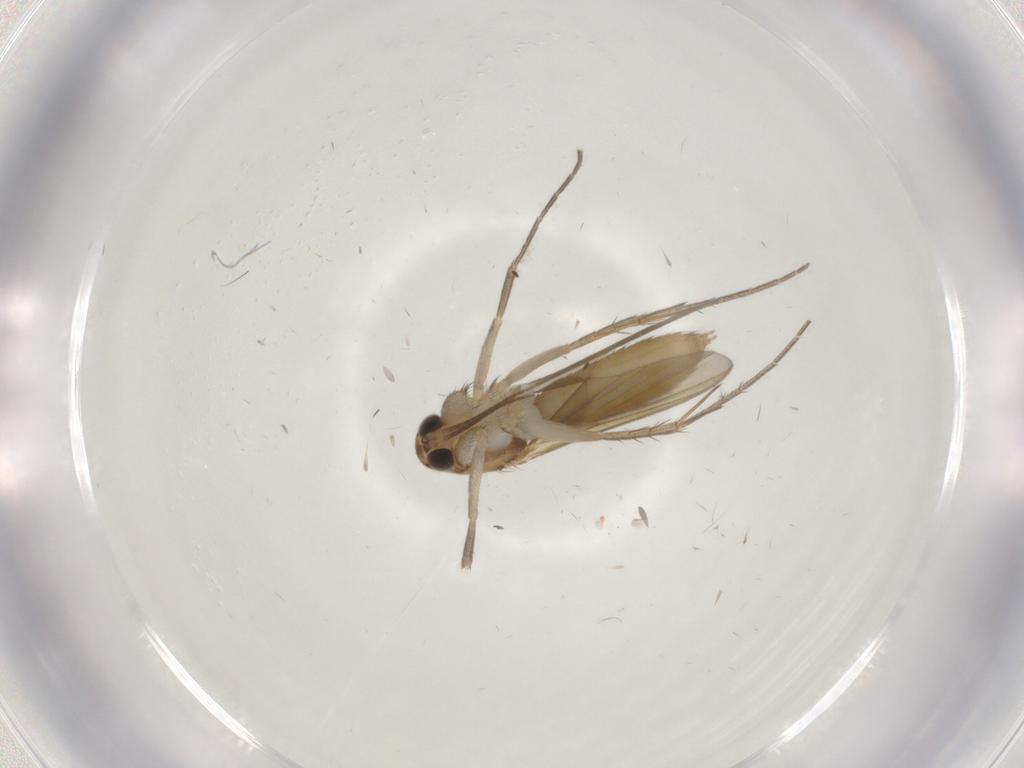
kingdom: Animalia
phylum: Arthropoda
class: Insecta
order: Diptera
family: Mycetophilidae
